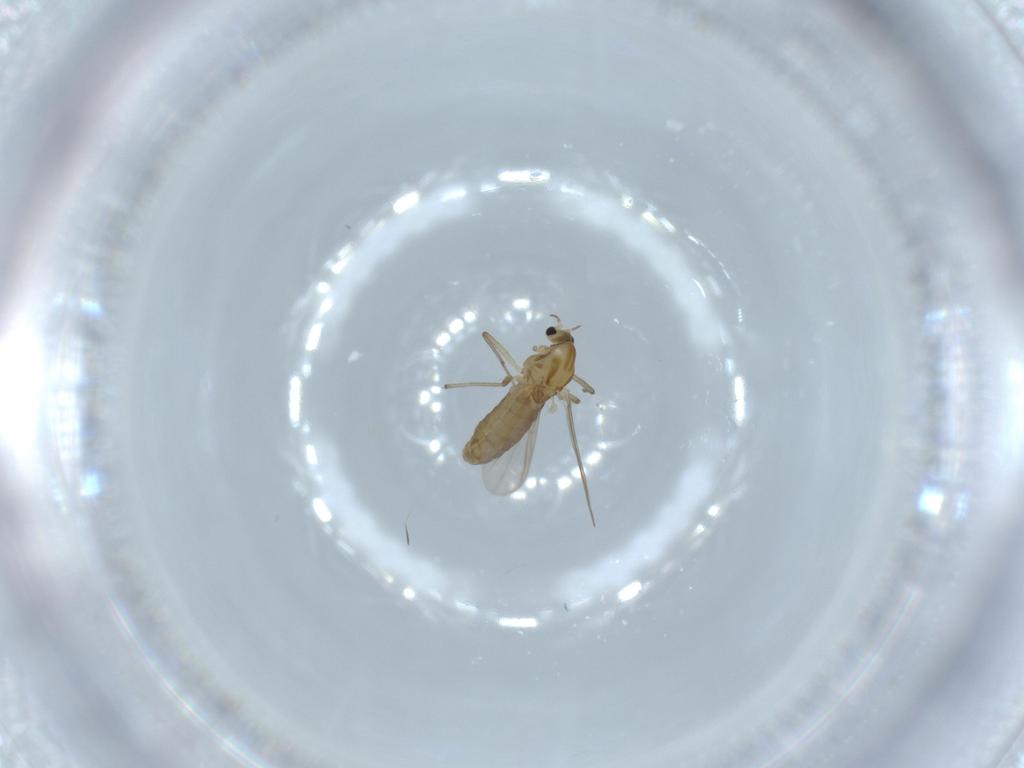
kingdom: Animalia
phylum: Arthropoda
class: Insecta
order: Diptera
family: Chironomidae
